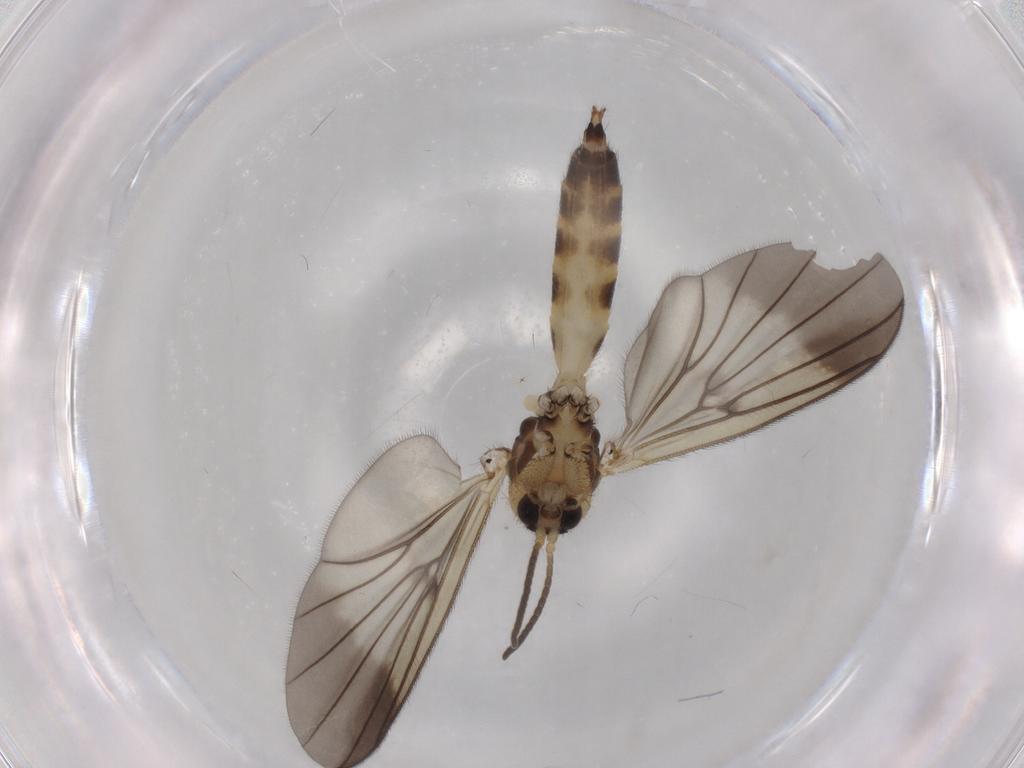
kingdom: Animalia
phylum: Arthropoda
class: Insecta
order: Diptera
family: Mycetophilidae
